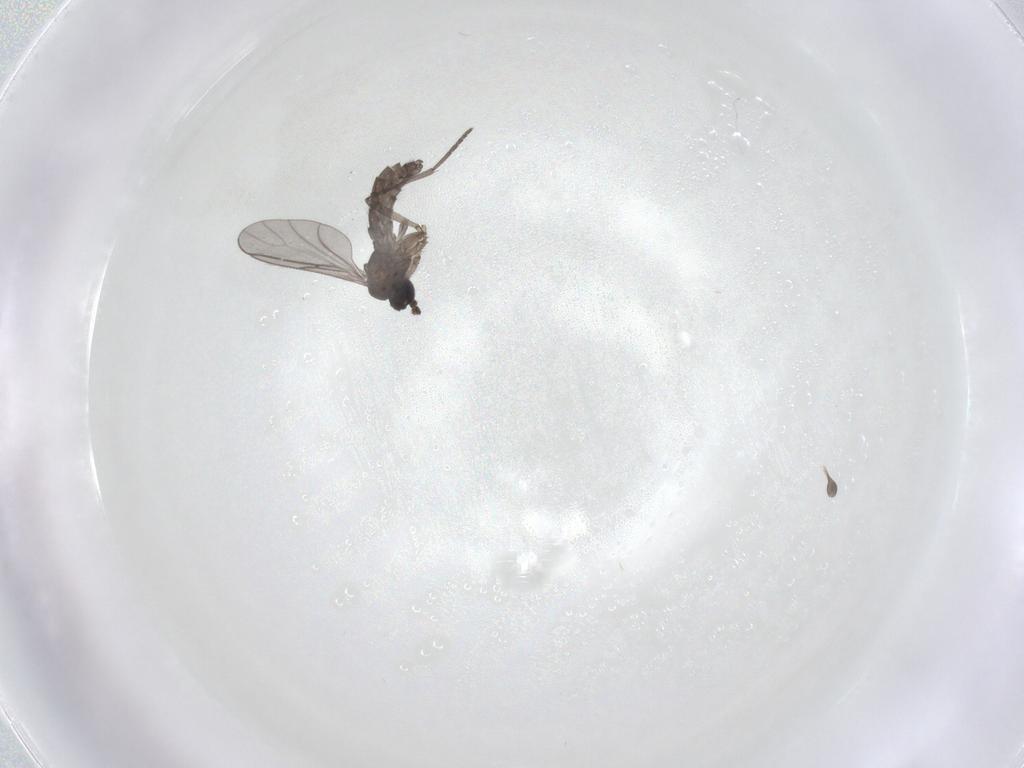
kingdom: Animalia
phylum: Arthropoda
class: Insecta
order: Diptera
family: Sciaridae
